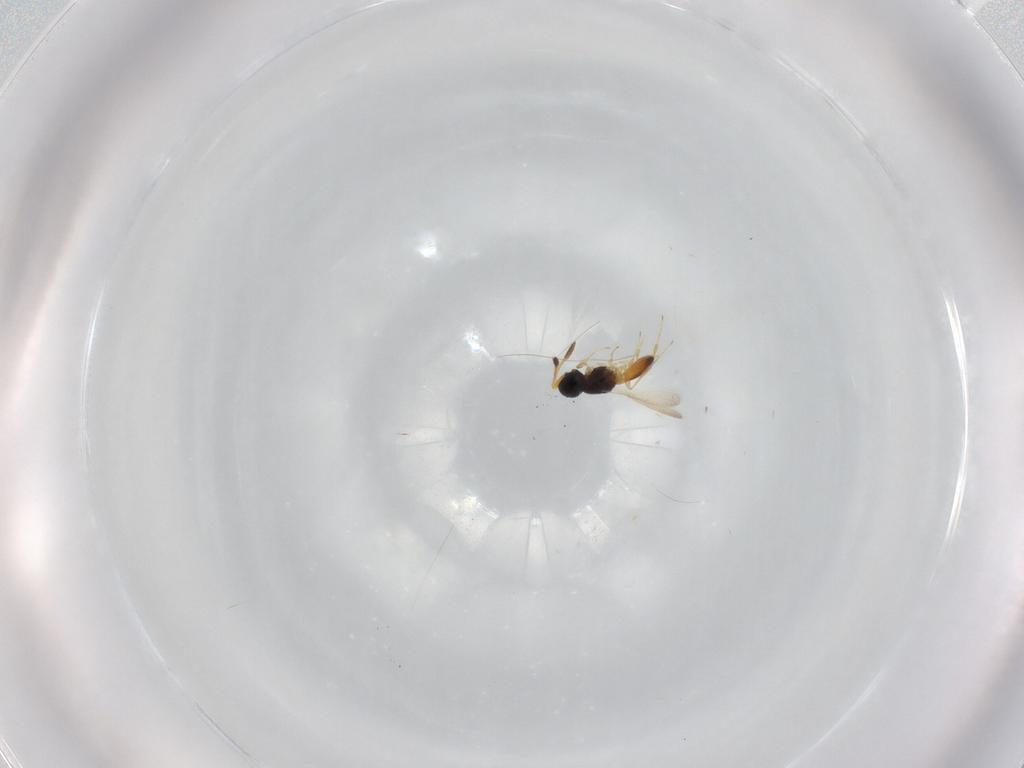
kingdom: Animalia
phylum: Arthropoda
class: Insecta
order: Hymenoptera
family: Scelionidae
